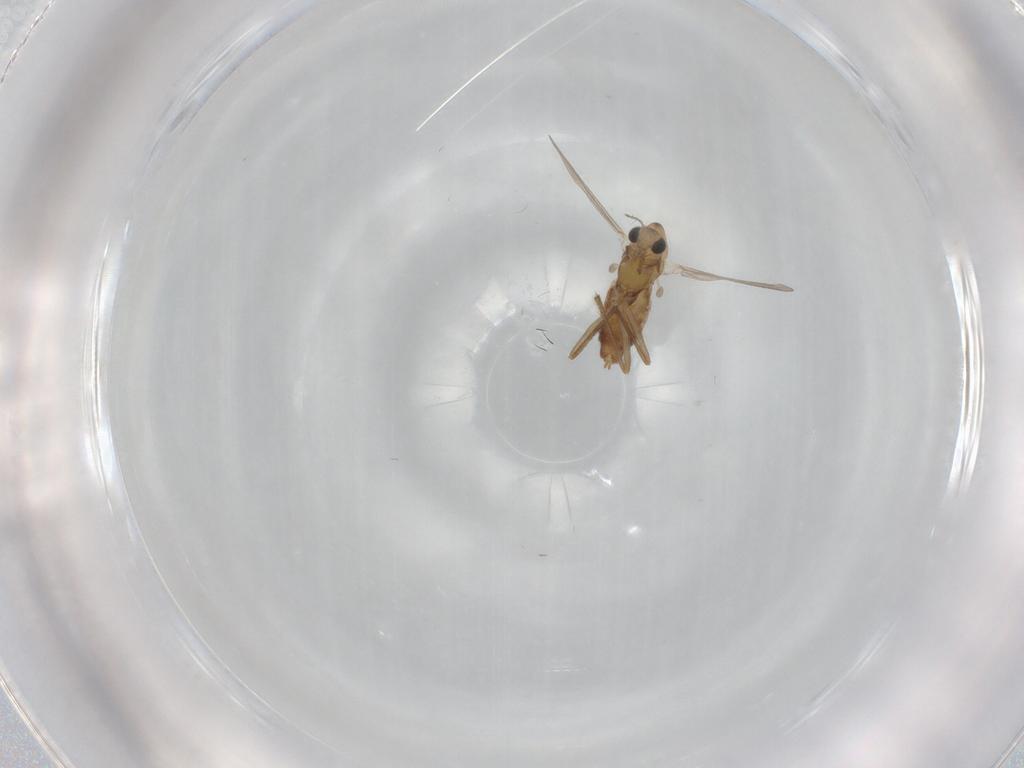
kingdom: Animalia
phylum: Arthropoda
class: Insecta
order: Diptera
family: Chironomidae
